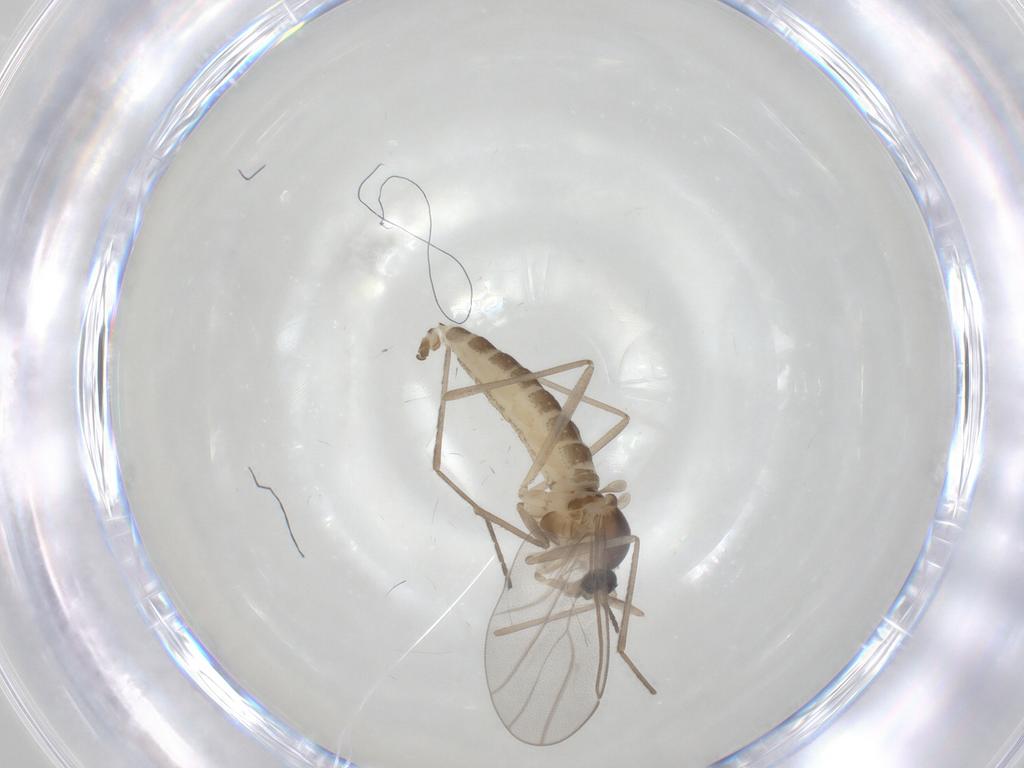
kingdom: Animalia
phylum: Arthropoda
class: Insecta
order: Diptera
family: Cecidomyiidae
